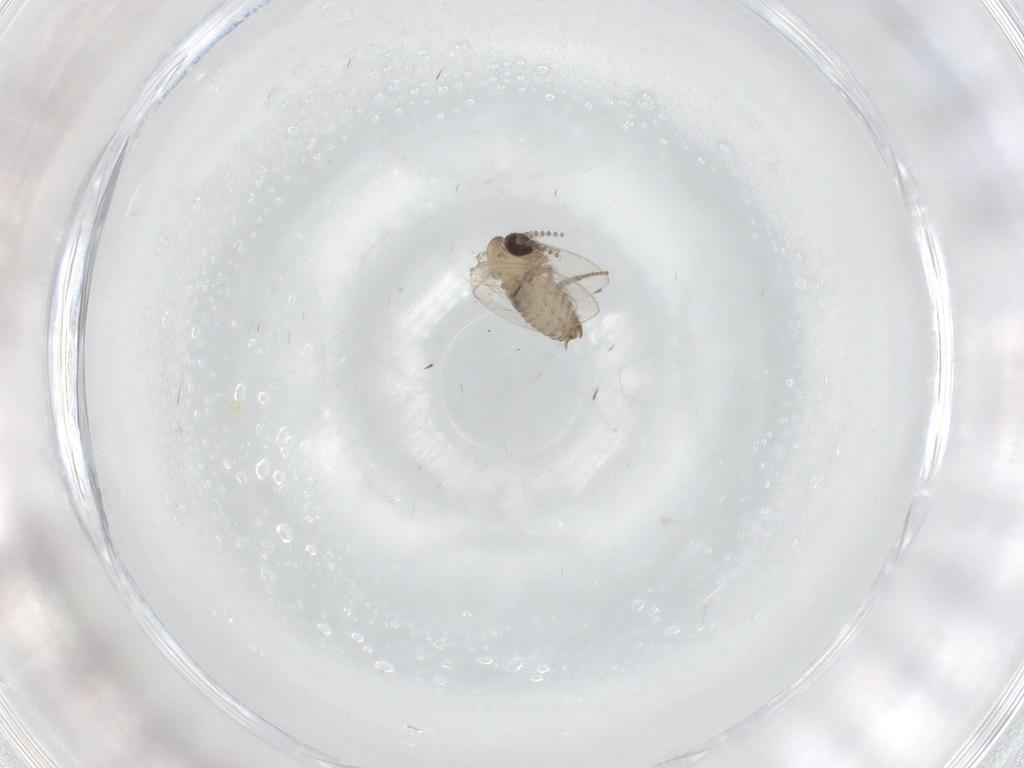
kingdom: Animalia
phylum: Arthropoda
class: Insecta
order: Diptera
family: Psychodidae
